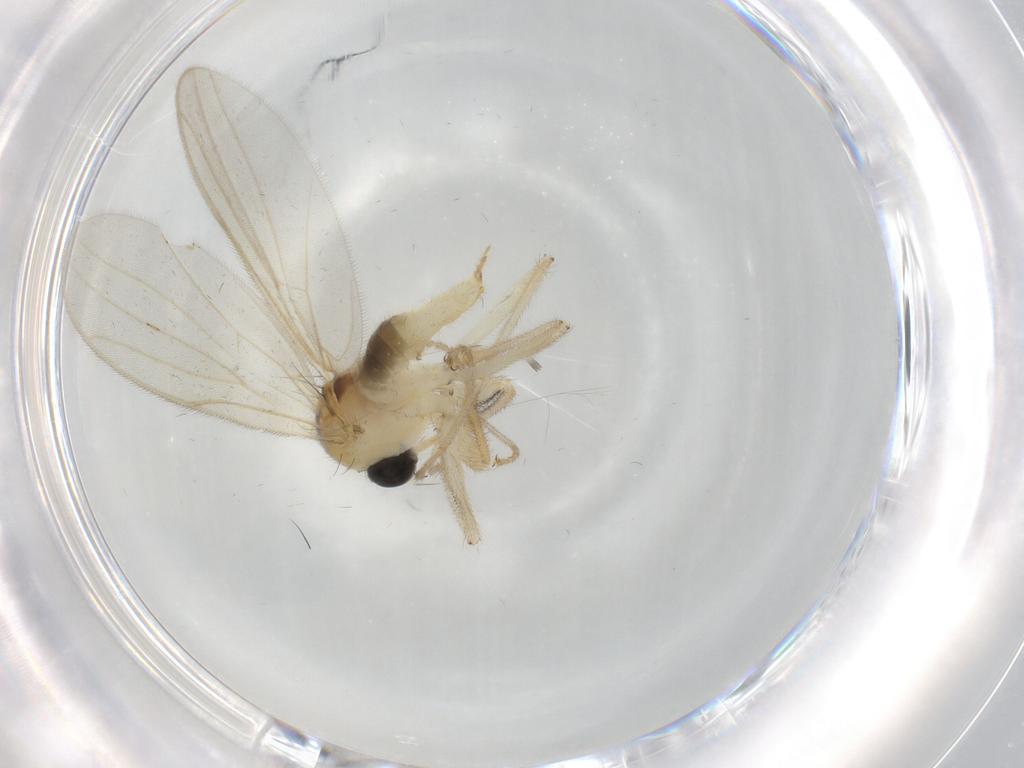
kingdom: Animalia
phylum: Arthropoda
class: Insecta
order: Diptera
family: Hybotidae
